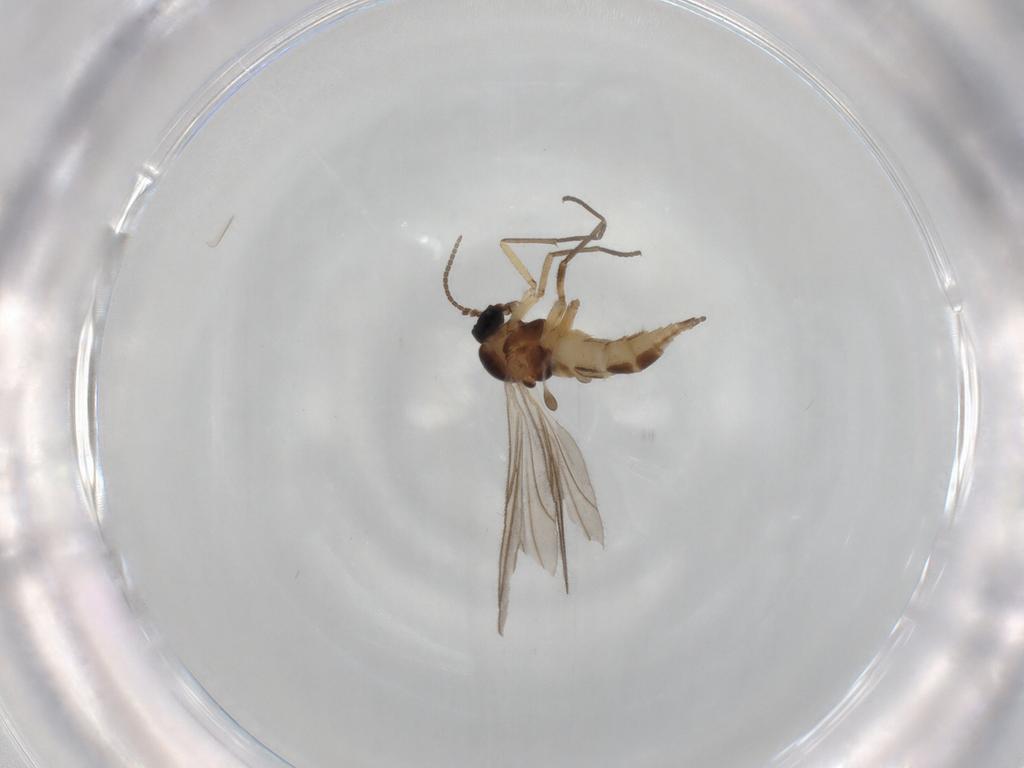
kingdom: Animalia
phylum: Arthropoda
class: Insecta
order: Diptera
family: Sciaridae
